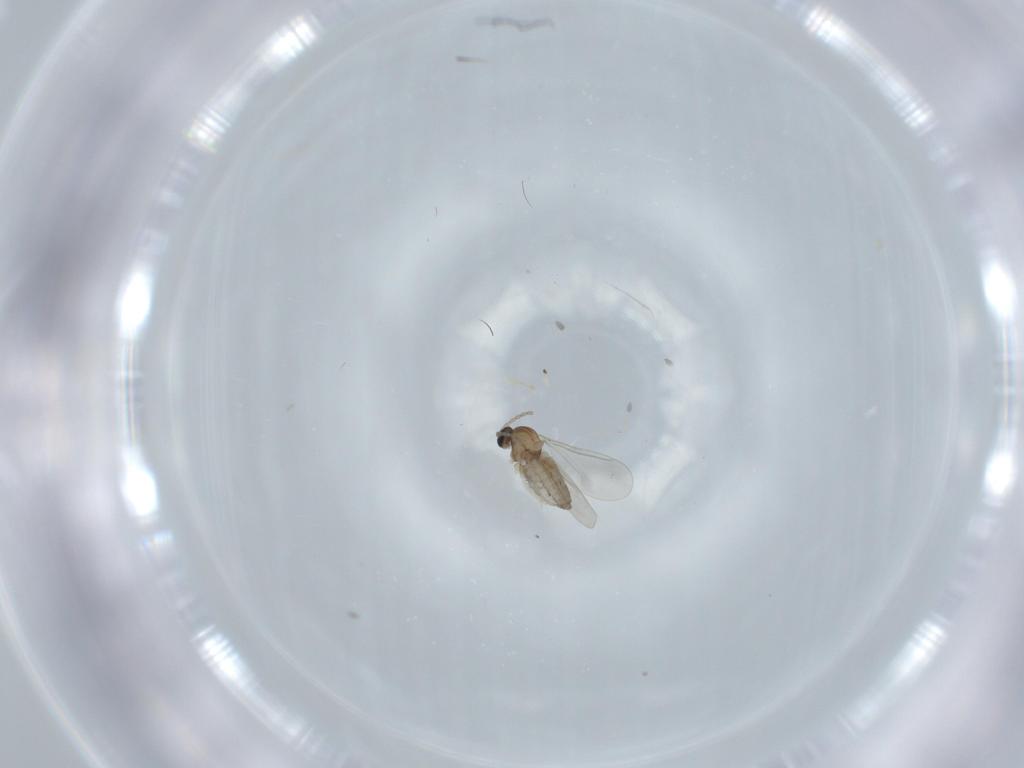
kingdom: Animalia
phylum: Arthropoda
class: Insecta
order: Diptera
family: Cecidomyiidae
